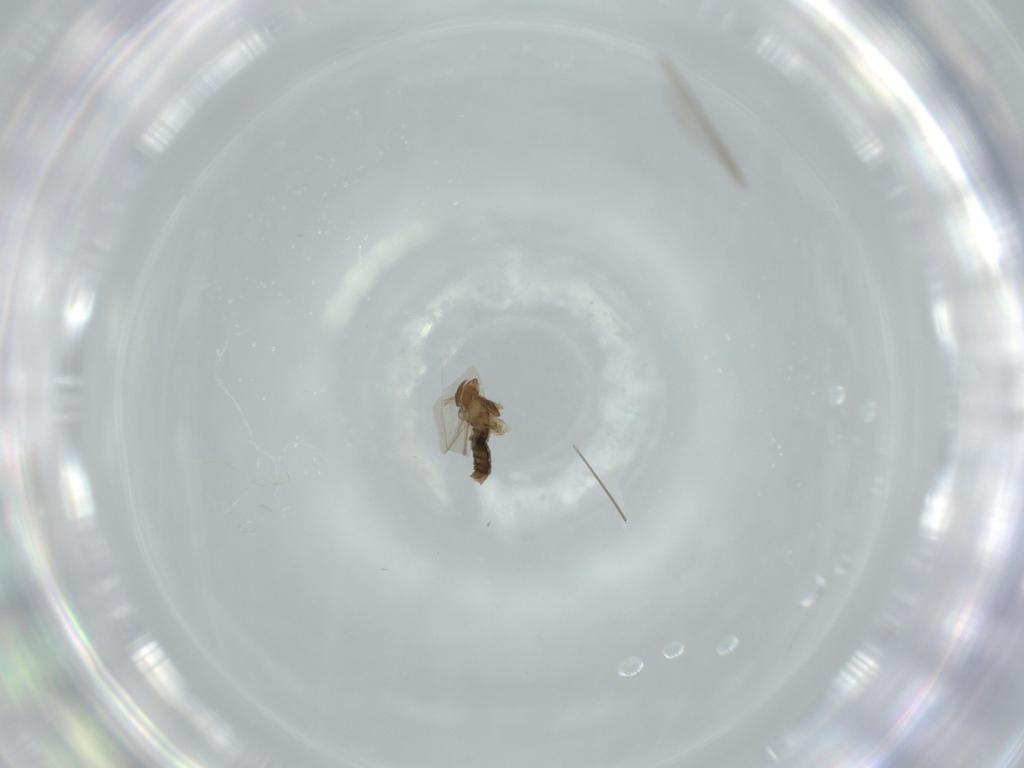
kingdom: Animalia
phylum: Arthropoda
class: Insecta
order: Diptera
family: Cecidomyiidae
